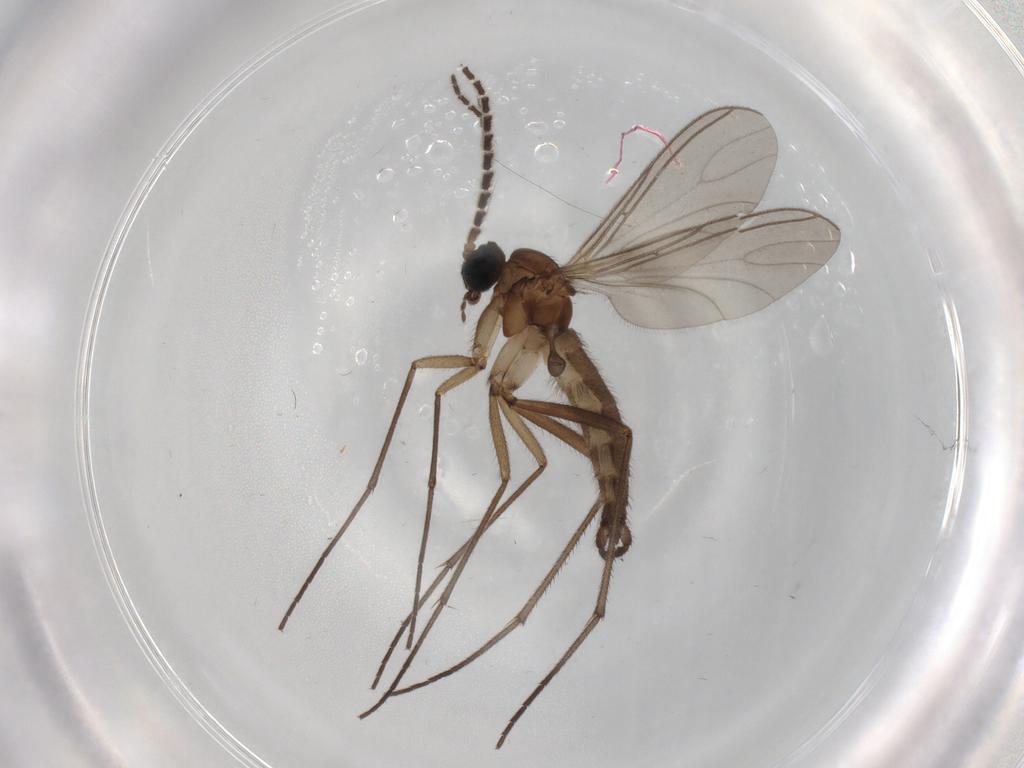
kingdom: Animalia
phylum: Arthropoda
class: Insecta
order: Diptera
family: Sciaridae
